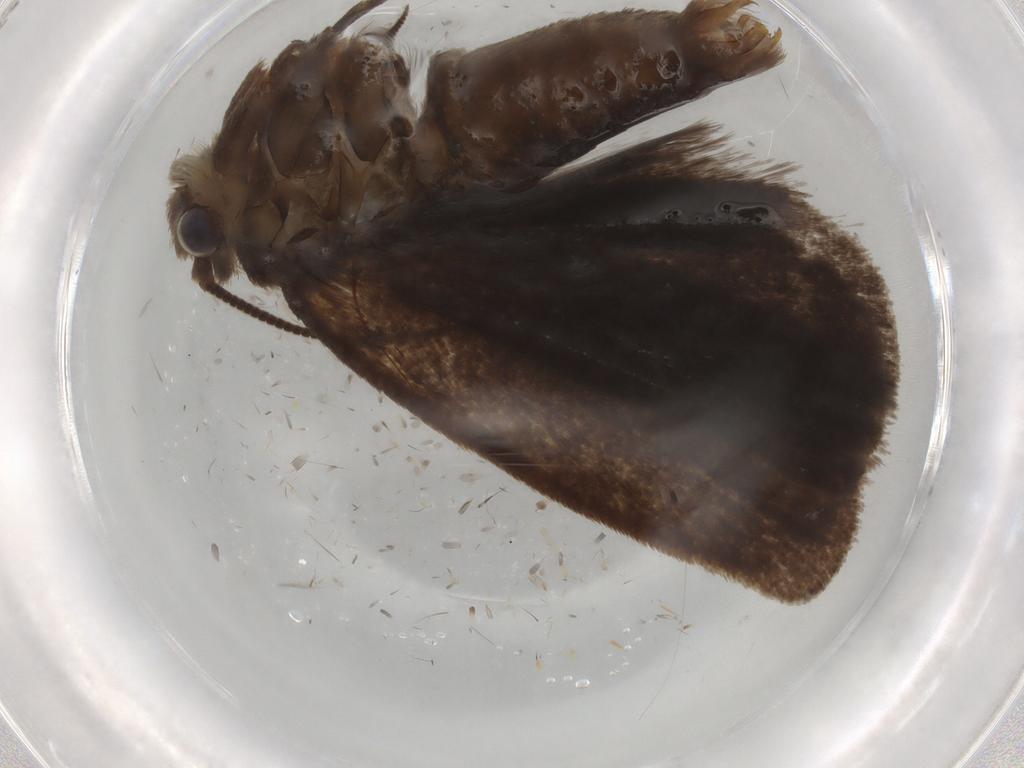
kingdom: Animalia
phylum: Arthropoda
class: Insecta
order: Lepidoptera
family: Tineidae
